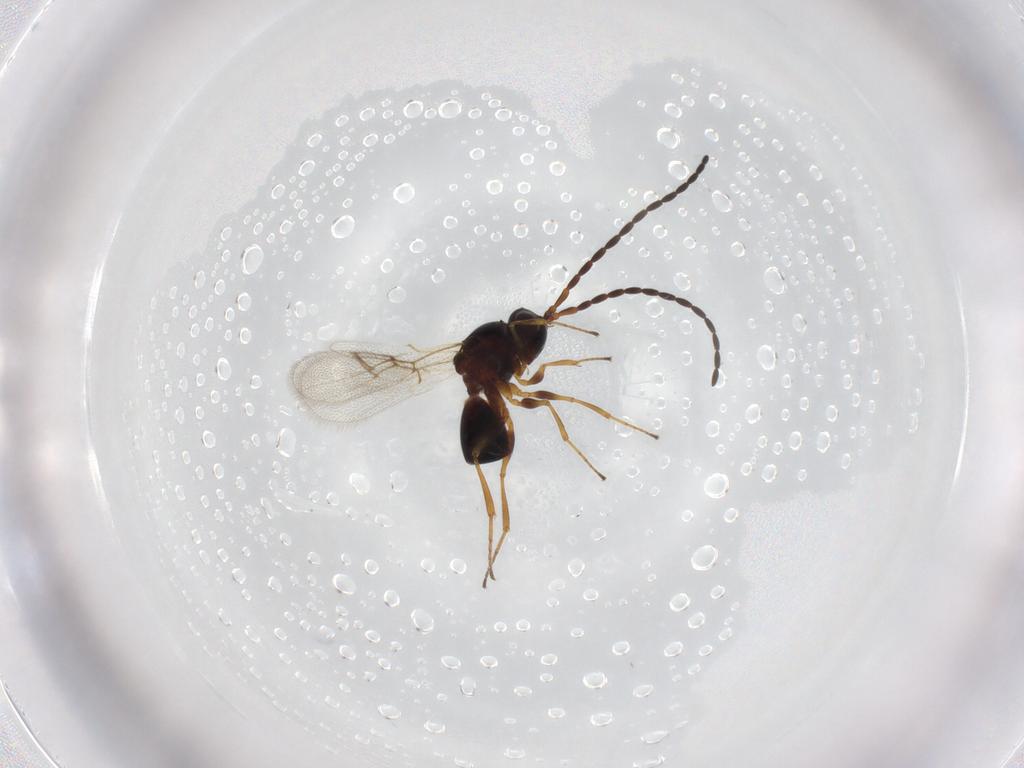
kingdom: Animalia
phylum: Arthropoda
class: Insecta
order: Hymenoptera
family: Figitidae
